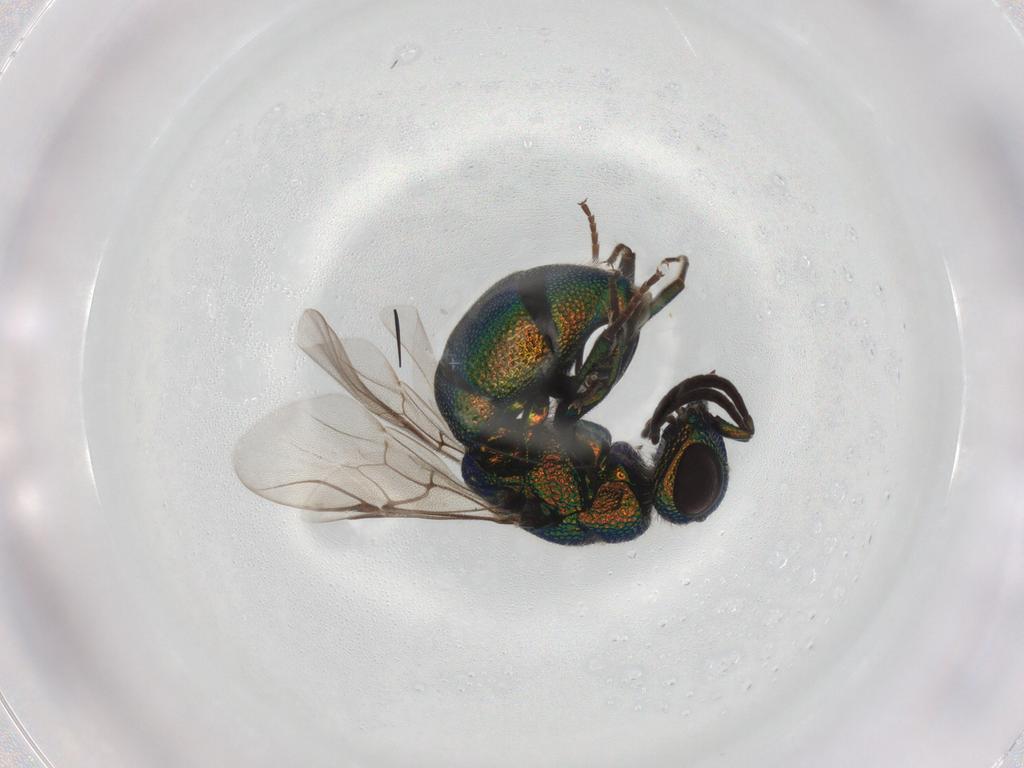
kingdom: Animalia
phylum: Arthropoda
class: Insecta
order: Hymenoptera
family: Chrysididae
